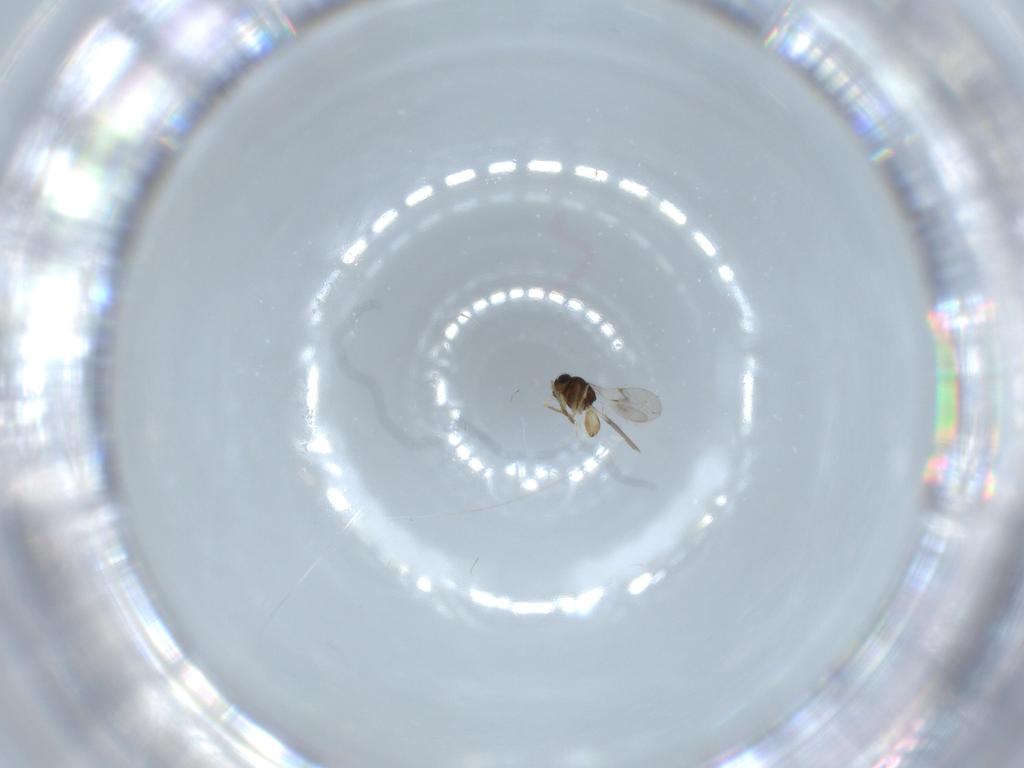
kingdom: Animalia
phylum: Arthropoda
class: Insecta
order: Hymenoptera
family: Scelionidae
